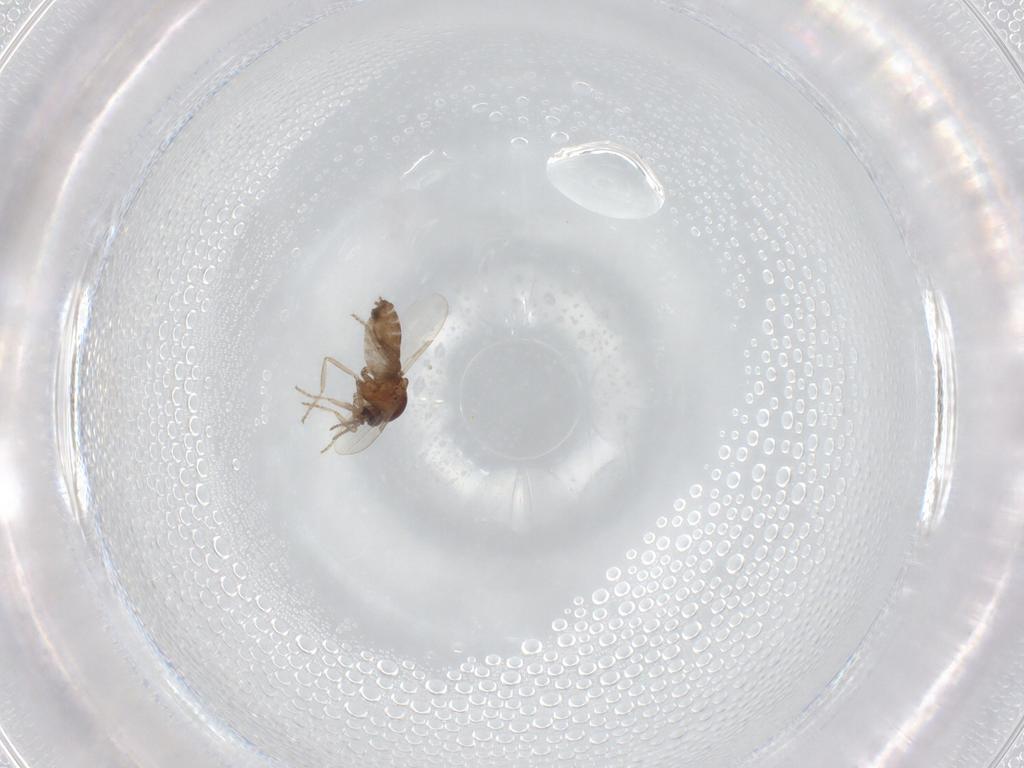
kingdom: Animalia
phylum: Arthropoda
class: Insecta
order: Diptera
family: Ceratopogonidae
